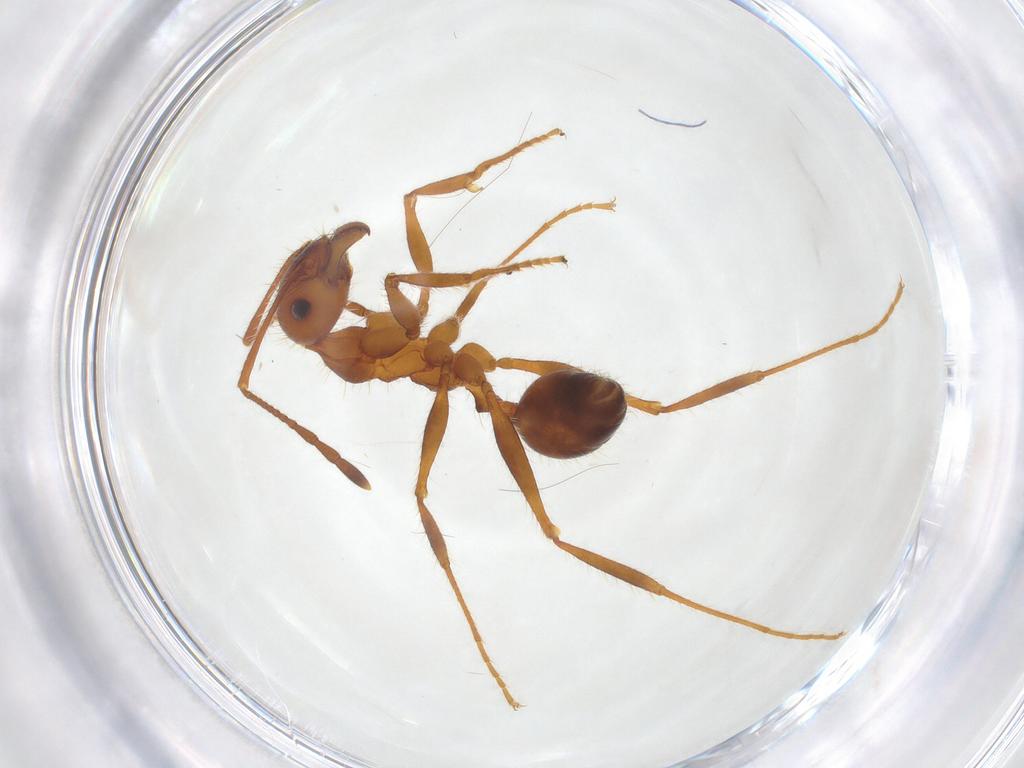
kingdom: Animalia
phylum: Arthropoda
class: Insecta
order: Hymenoptera
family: Formicidae
